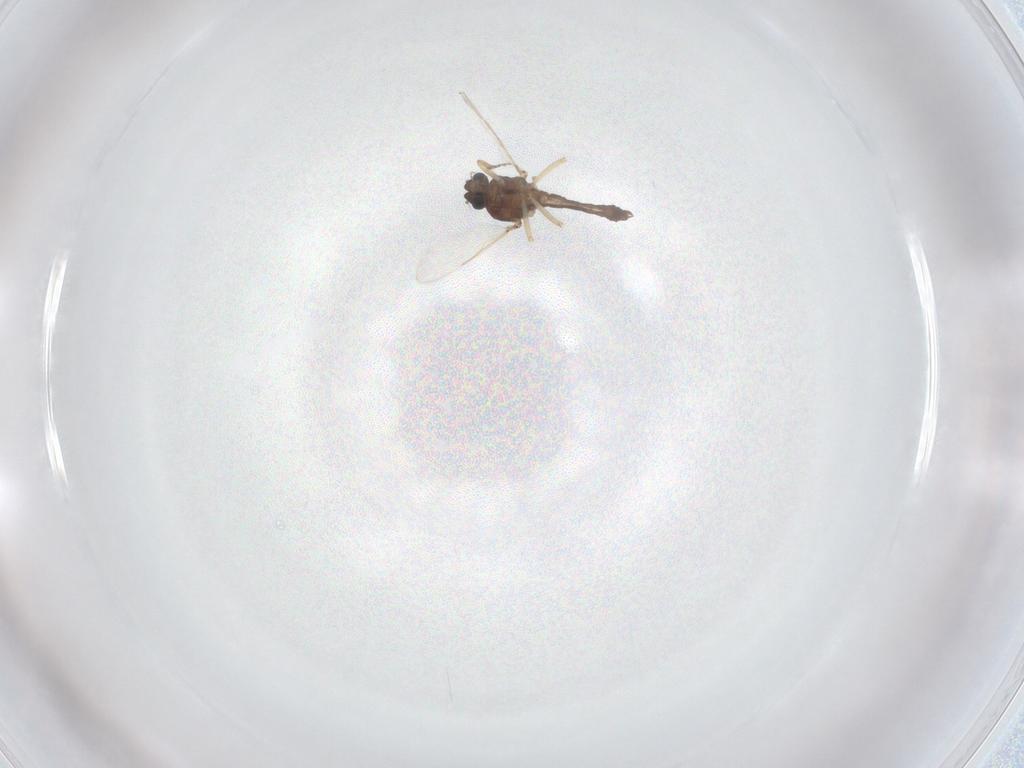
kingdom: Animalia
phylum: Arthropoda
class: Insecta
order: Diptera
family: Ceratopogonidae
